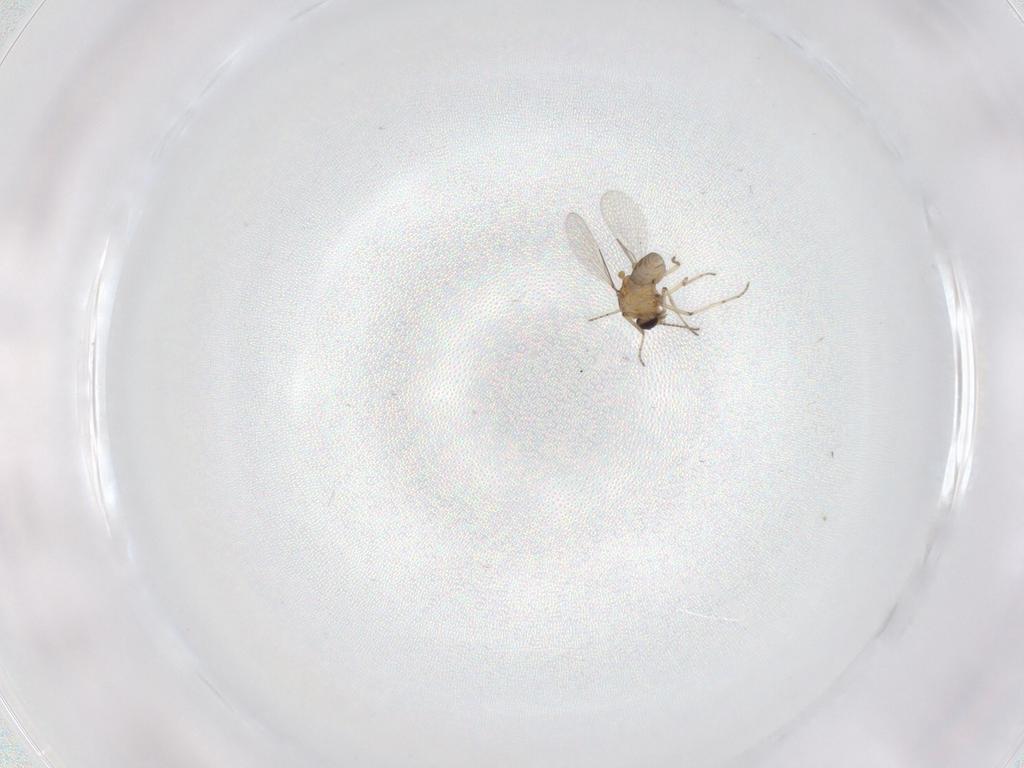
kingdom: Animalia
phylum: Arthropoda
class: Insecta
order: Diptera
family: Ceratopogonidae
